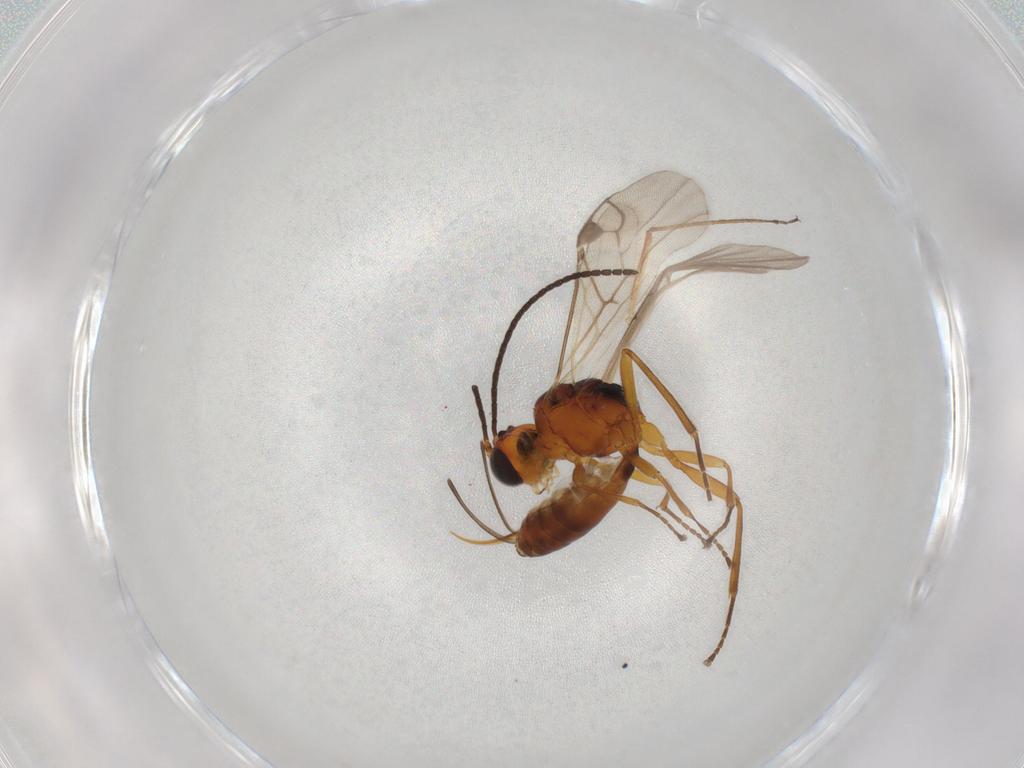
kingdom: Animalia
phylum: Arthropoda
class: Insecta
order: Hymenoptera
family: Braconidae
